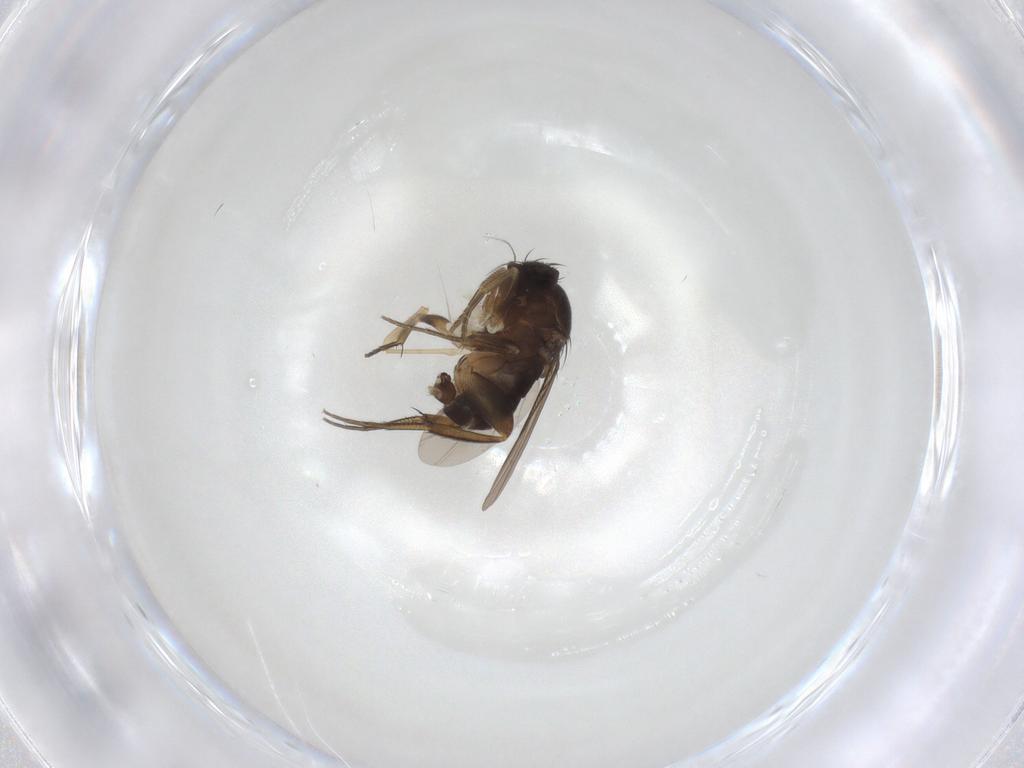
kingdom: Animalia
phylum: Arthropoda
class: Insecta
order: Diptera
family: Phoridae
